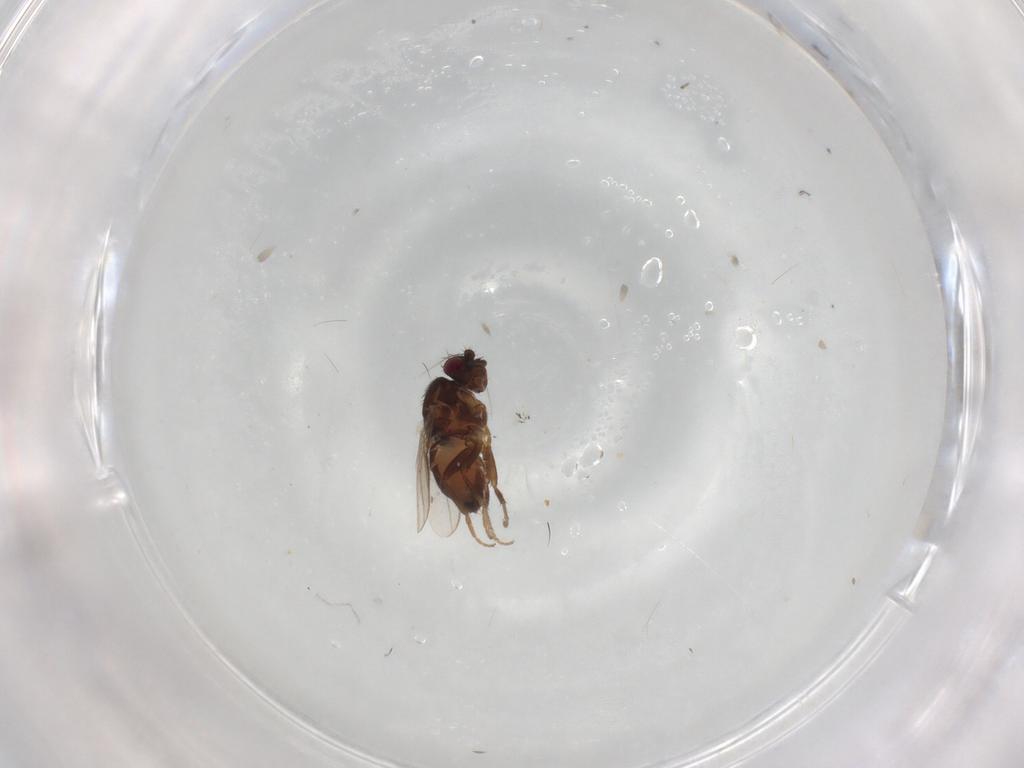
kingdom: Animalia
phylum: Arthropoda
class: Insecta
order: Diptera
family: Sphaeroceridae
